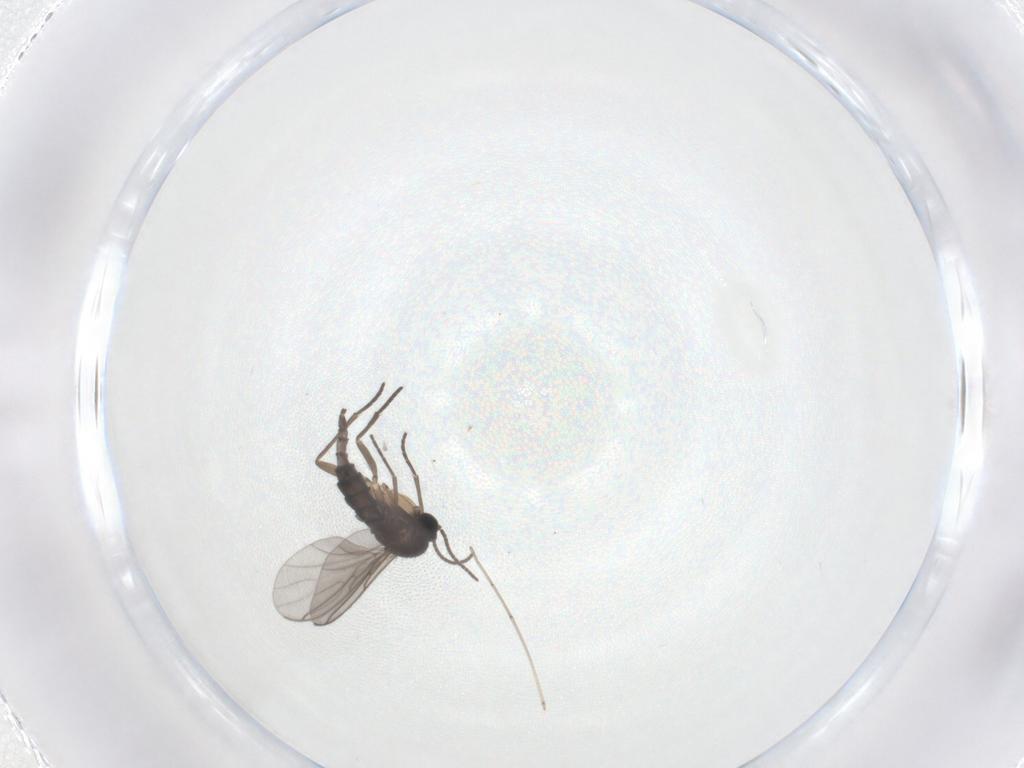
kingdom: Animalia
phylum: Arthropoda
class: Insecta
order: Diptera
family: Sciaridae
